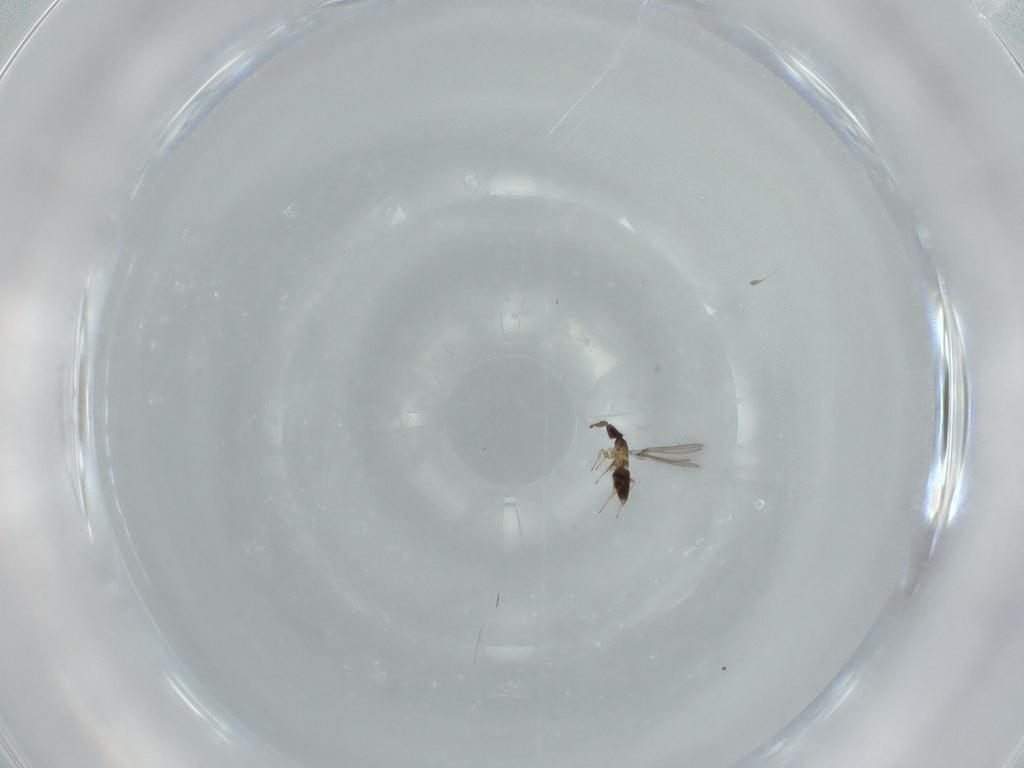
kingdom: Animalia
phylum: Arthropoda
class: Insecta
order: Hymenoptera
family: Mymaridae
